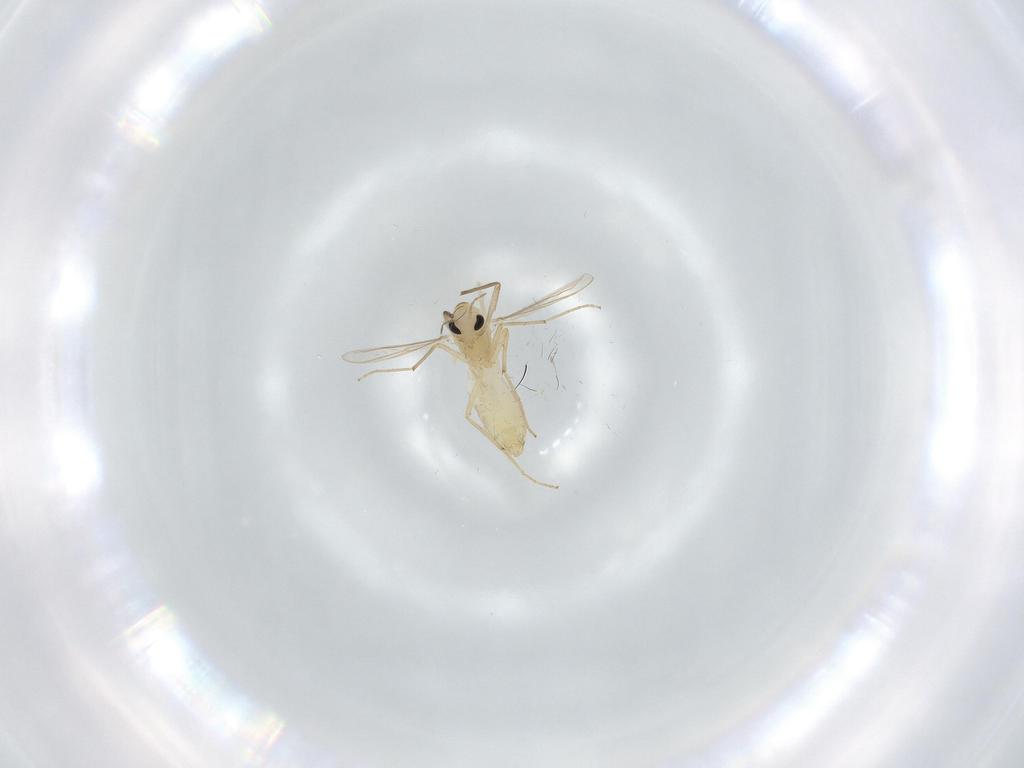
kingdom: Animalia
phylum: Arthropoda
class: Insecta
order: Diptera
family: Chironomidae
